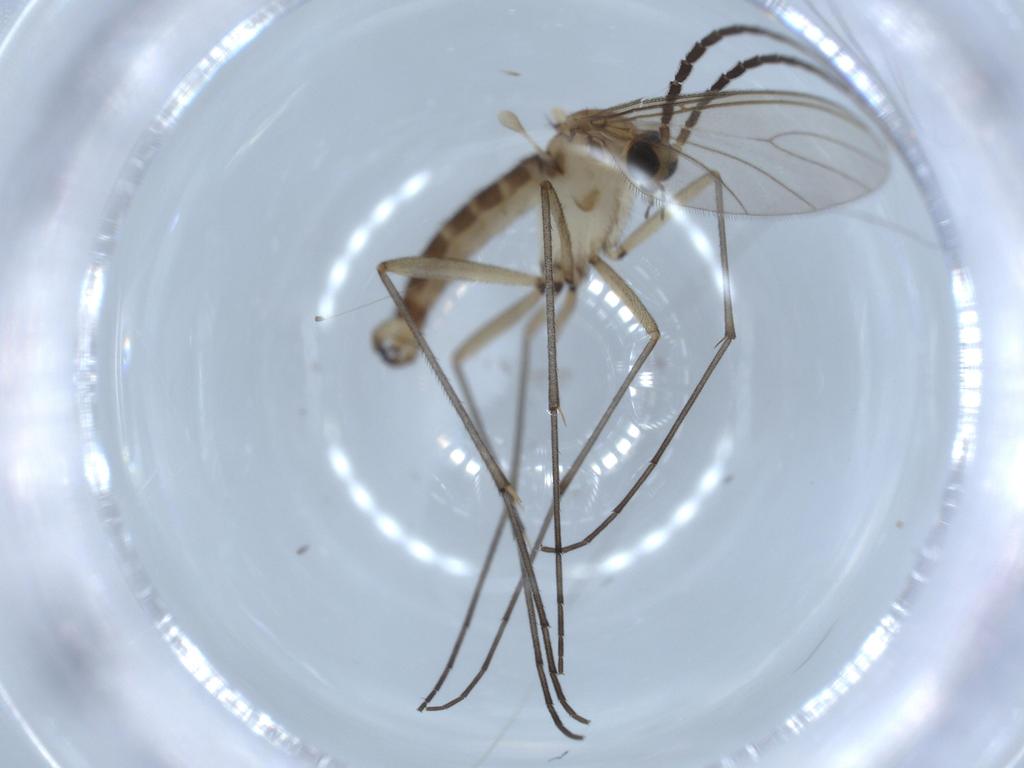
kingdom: Animalia
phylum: Arthropoda
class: Insecta
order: Diptera
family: Sciaridae
